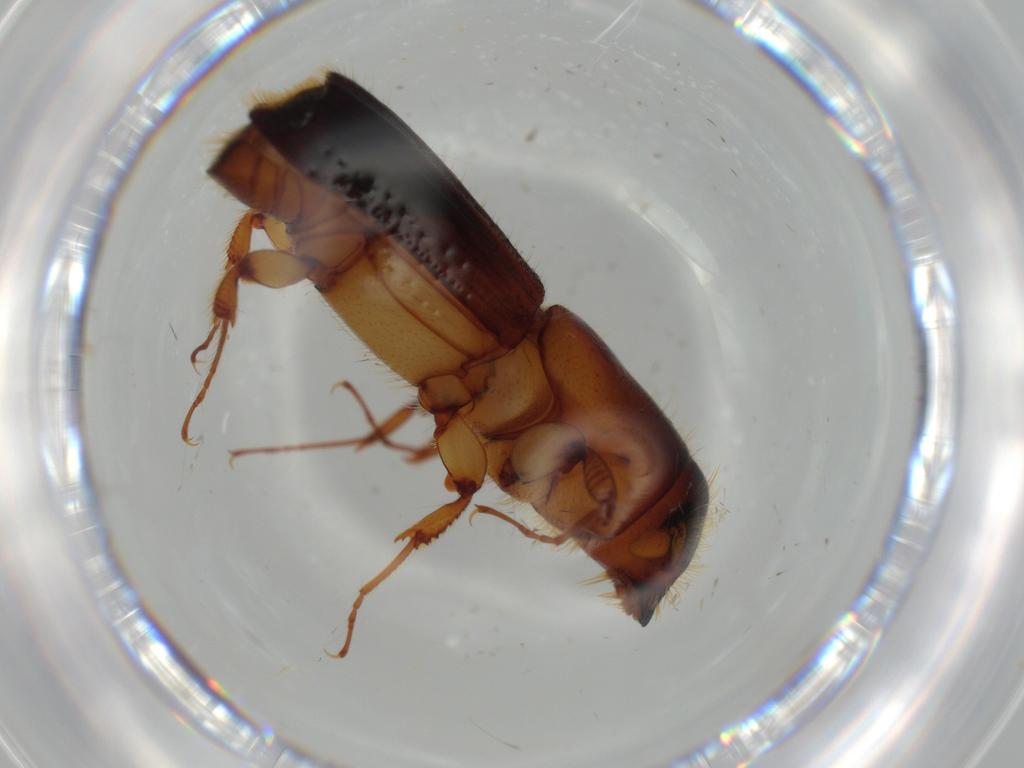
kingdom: Animalia
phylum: Arthropoda
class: Insecta
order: Coleoptera
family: Curculionidae
